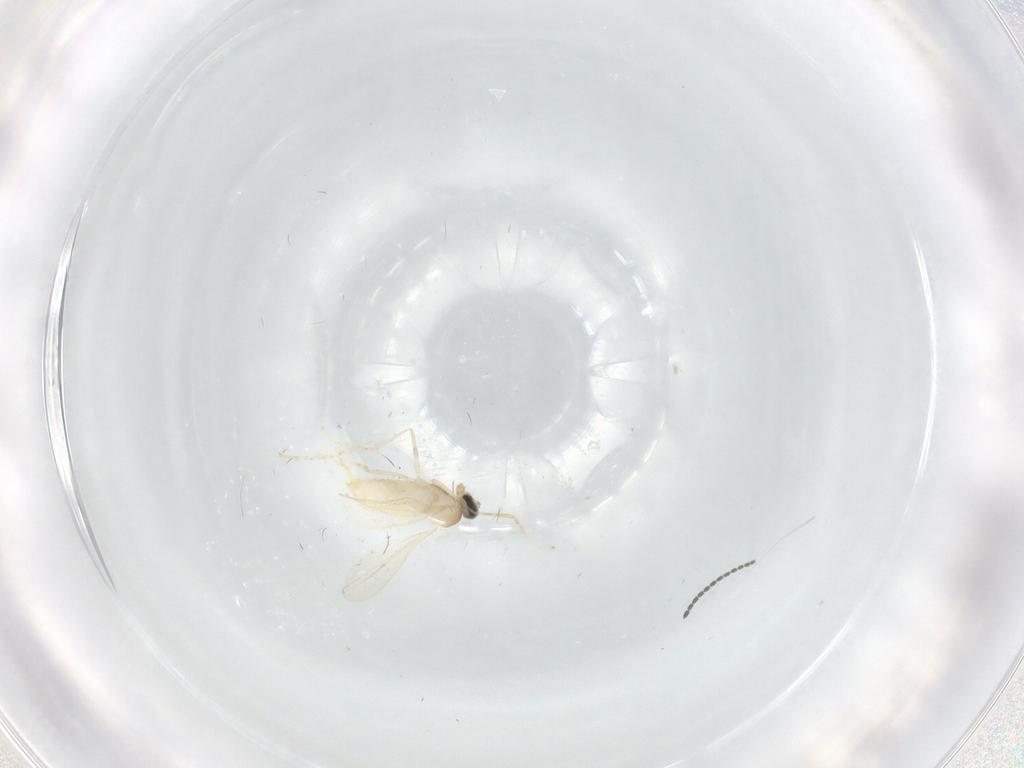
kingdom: Animalia
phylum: Arthropoda
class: Insecta
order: Diptera
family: Cecidomyiidae
